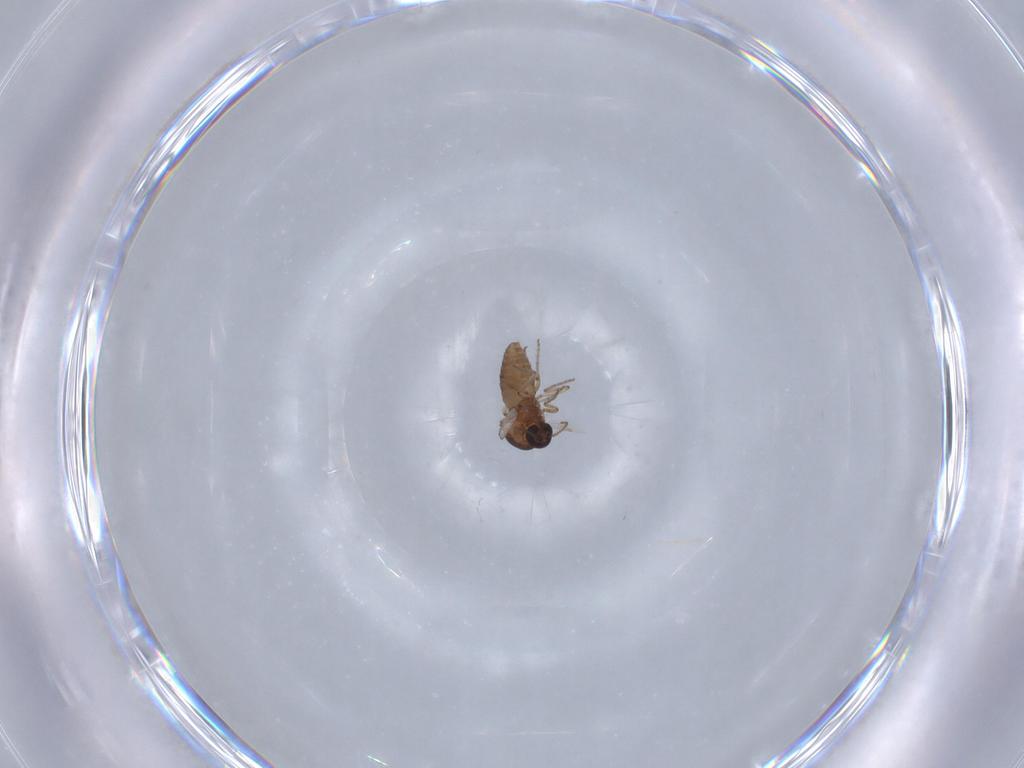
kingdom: Animalia
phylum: Arthropoda
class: Insecta
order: Diptera
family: Ceratopogonidae
